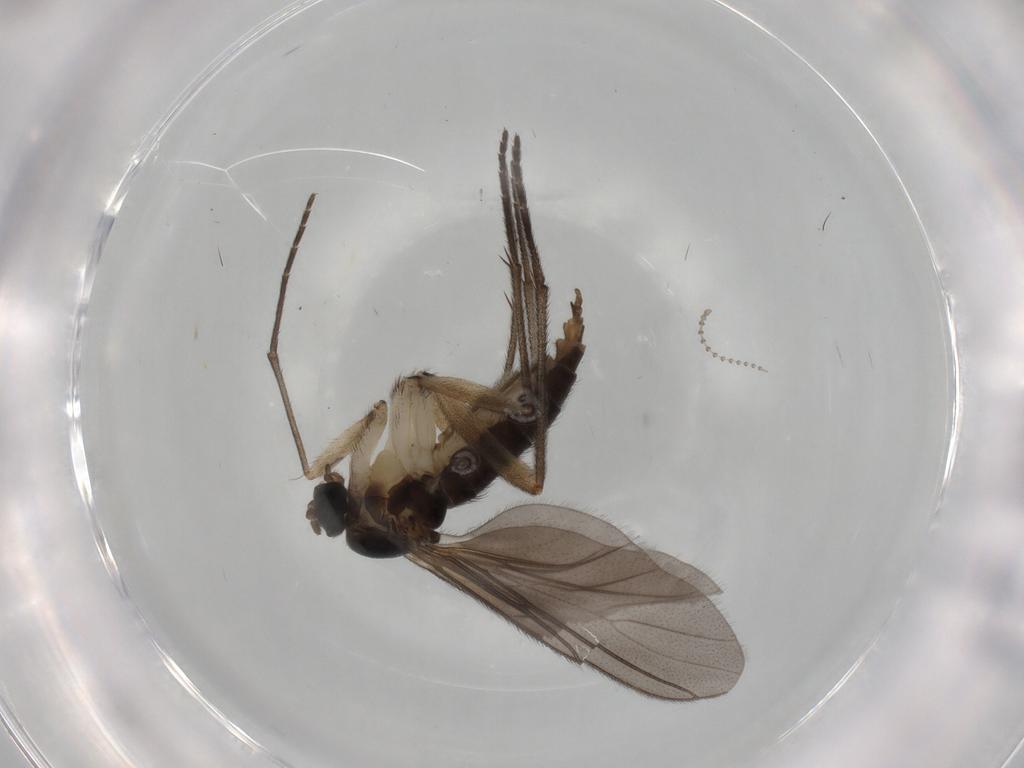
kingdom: Animalia
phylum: Arthropoda
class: Insecta
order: Diptera
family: Sciaridae
